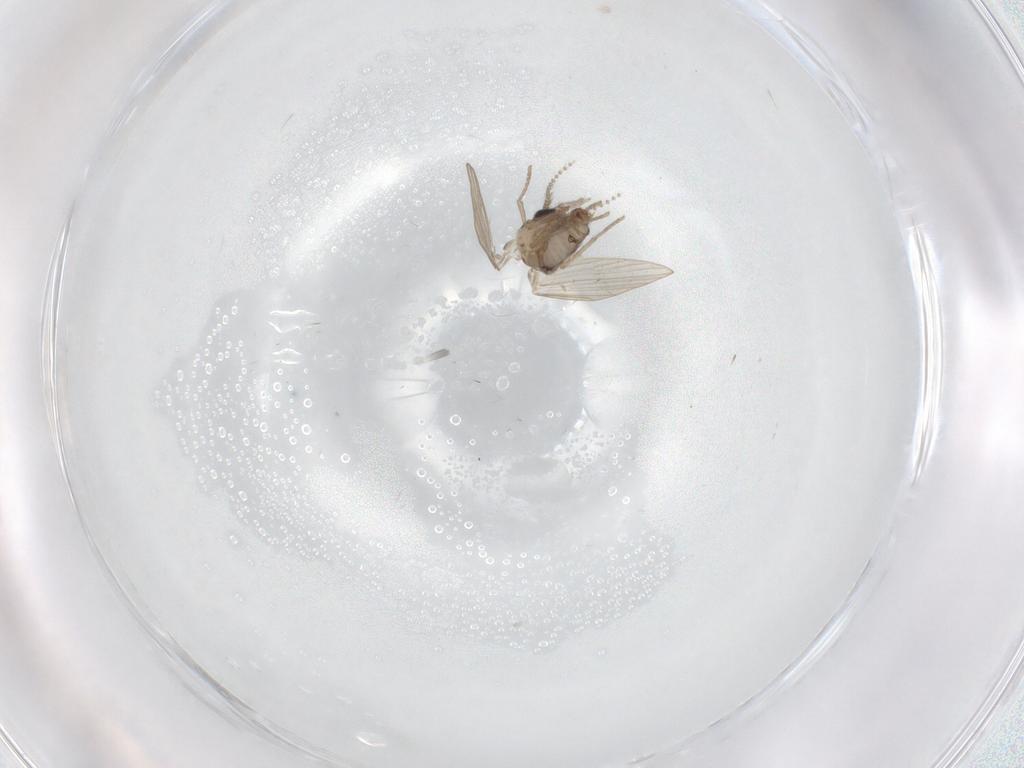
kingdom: Animalia
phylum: Arthropoda
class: Insecta
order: Diptera
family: Psychodidae
